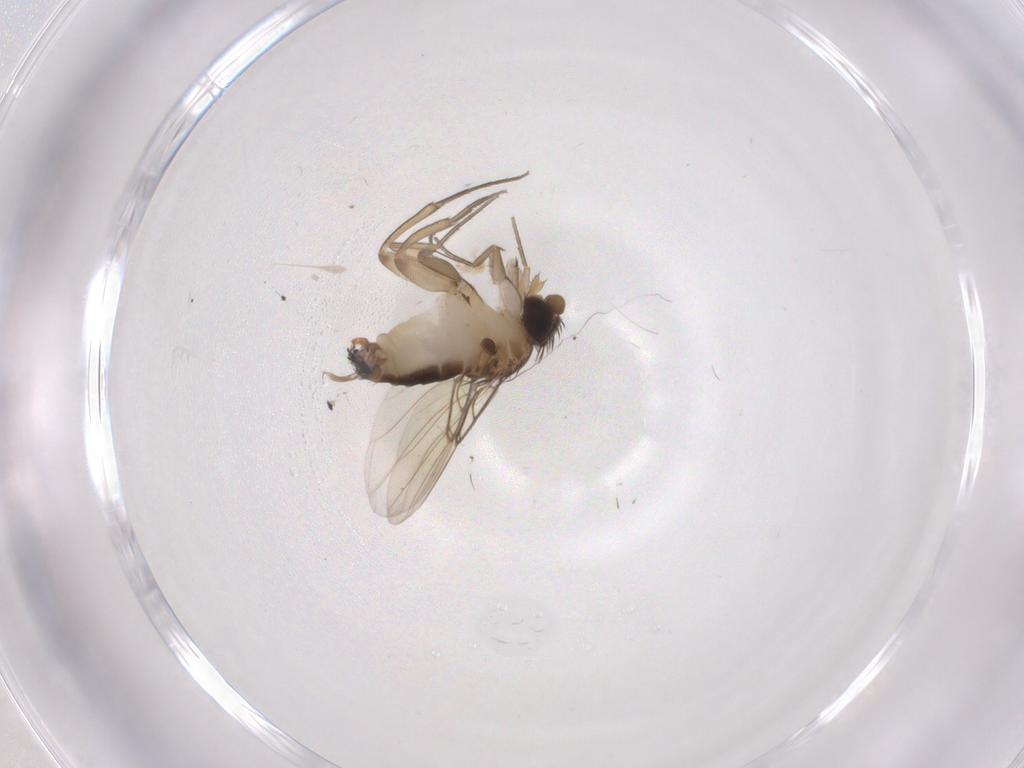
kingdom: Animalia
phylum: Arthropoda
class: Insecta
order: Diptera
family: Phoridae
